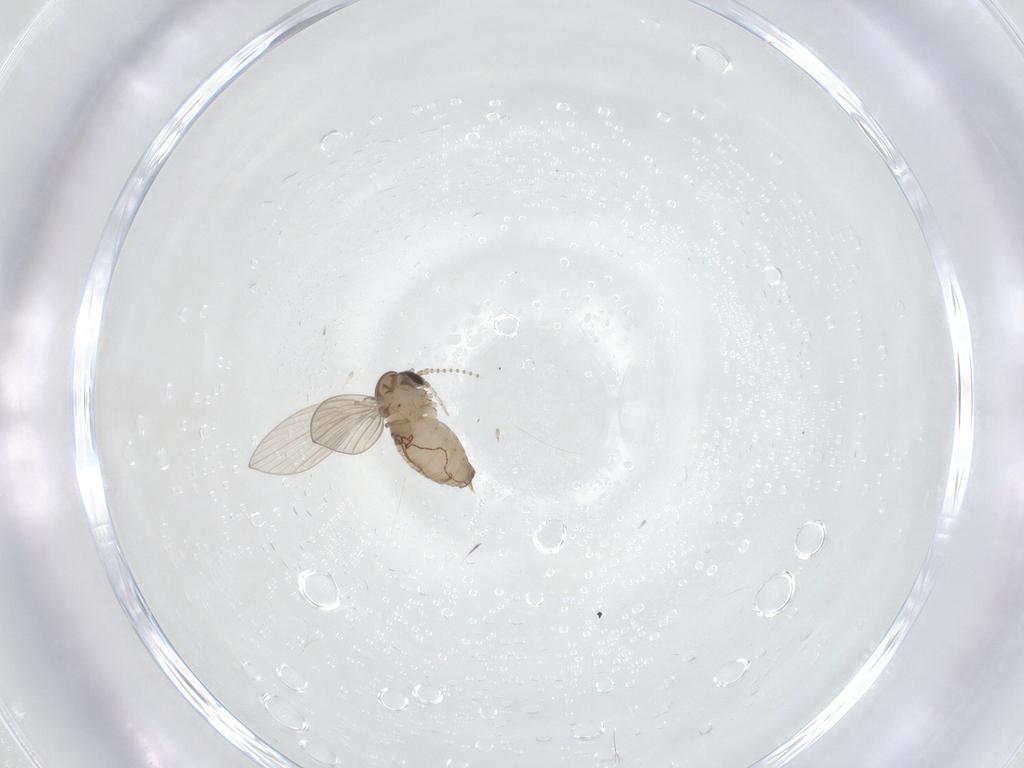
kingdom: Animalia
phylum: Arthropoda
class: Insecta
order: Diptera
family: Psychodidae
